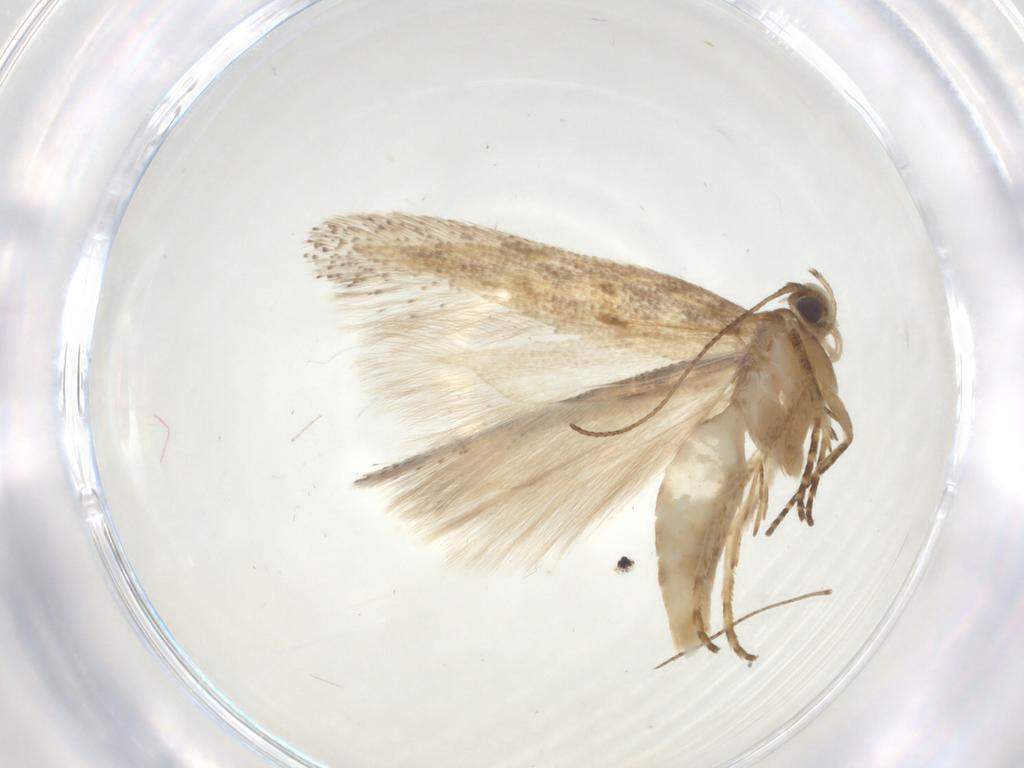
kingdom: Animalia
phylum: Arthropoda
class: Insecta
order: Lepidoptera
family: Gelechiidae
